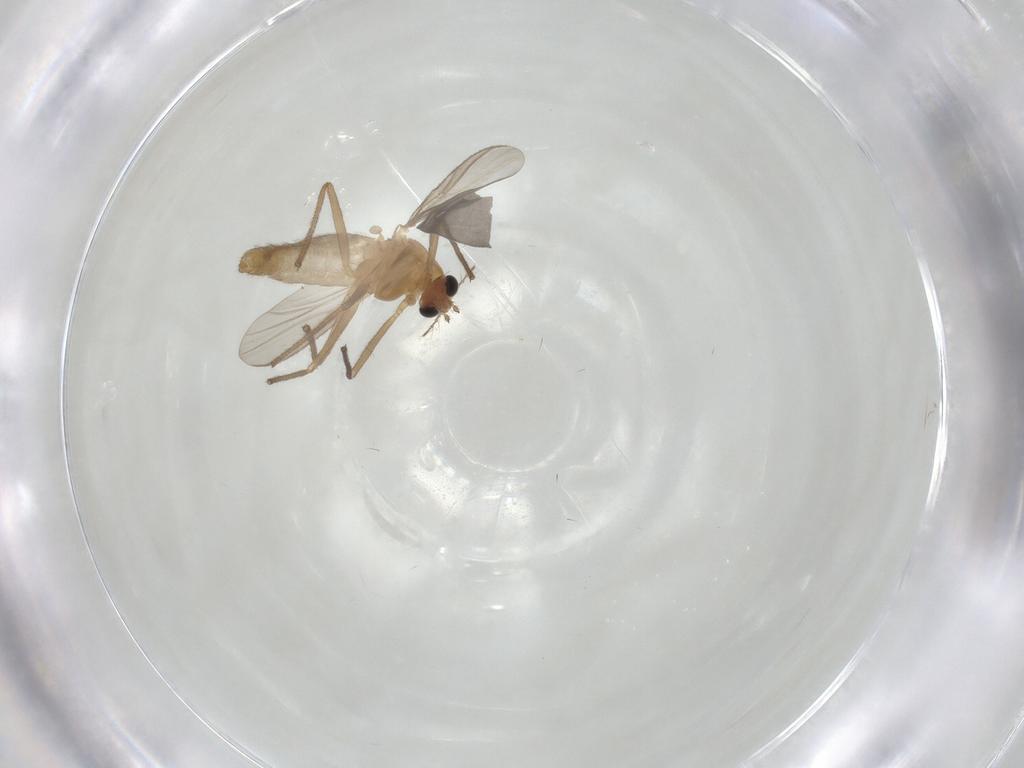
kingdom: Animalia
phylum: Arthropoda
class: Insecta
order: Diptera
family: Chironomidae
